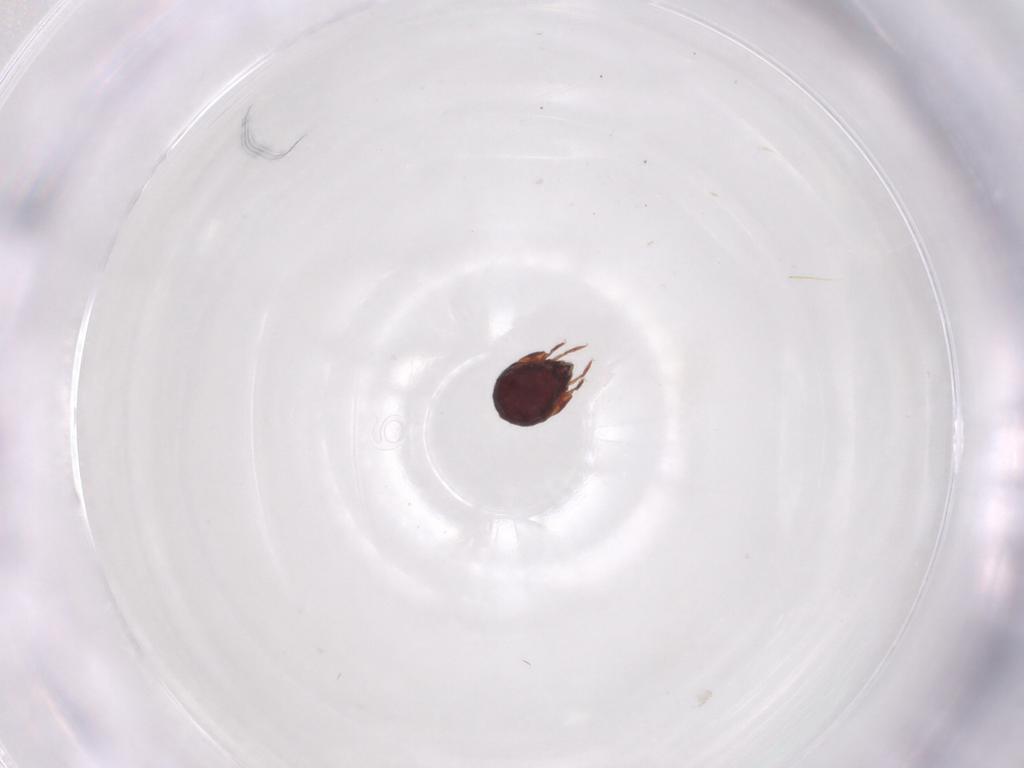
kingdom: Animalia
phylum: Arthropoda
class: Arachnida
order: Sarcoptiformes
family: Humerobatidae
